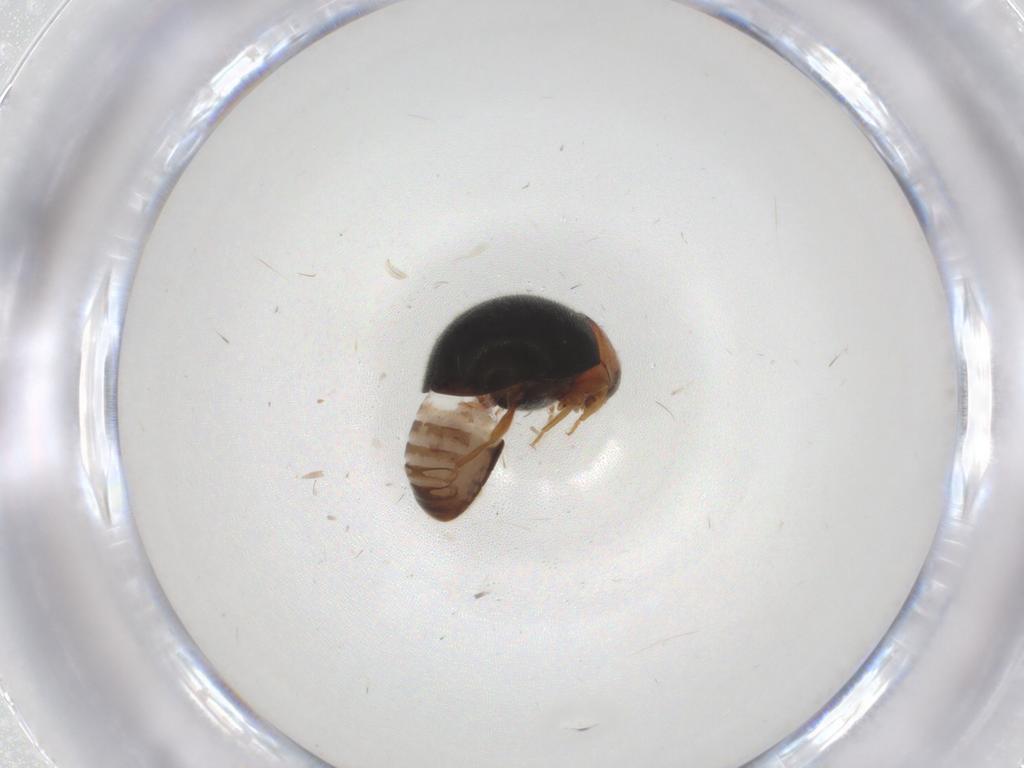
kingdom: Animalia
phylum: Arthropoda
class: Insecta
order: Coleoptera
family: Coccinellidae
